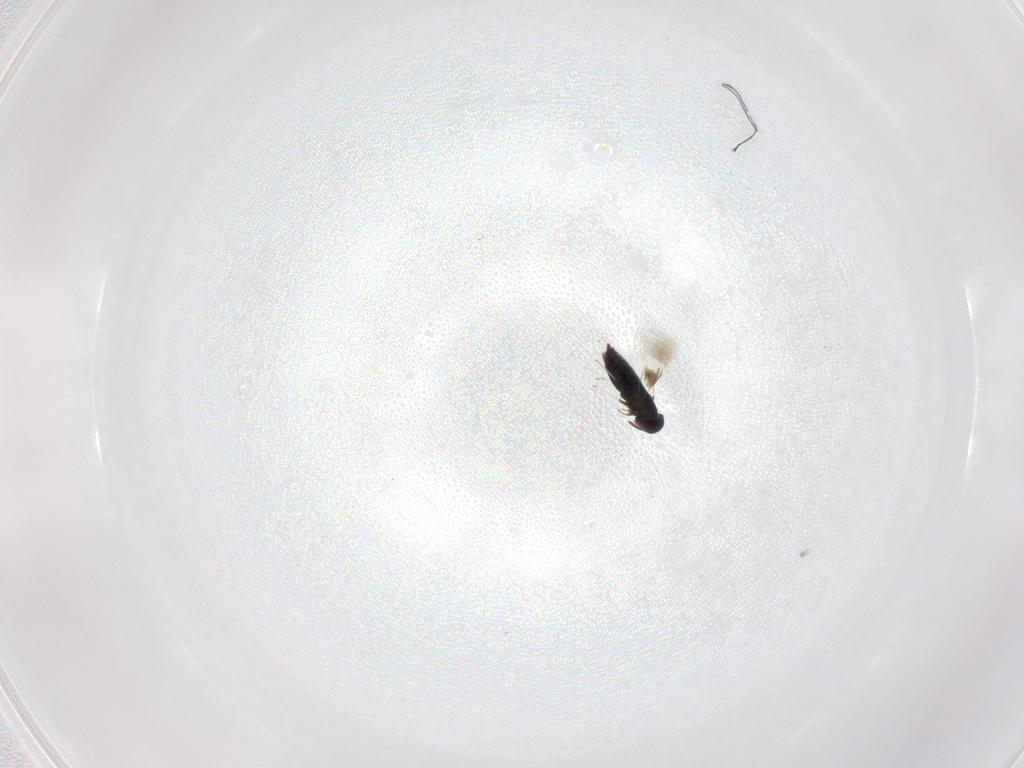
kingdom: Animalia
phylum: Arthropoda
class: Insecta
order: Hymenoptera
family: Signiphoridae
